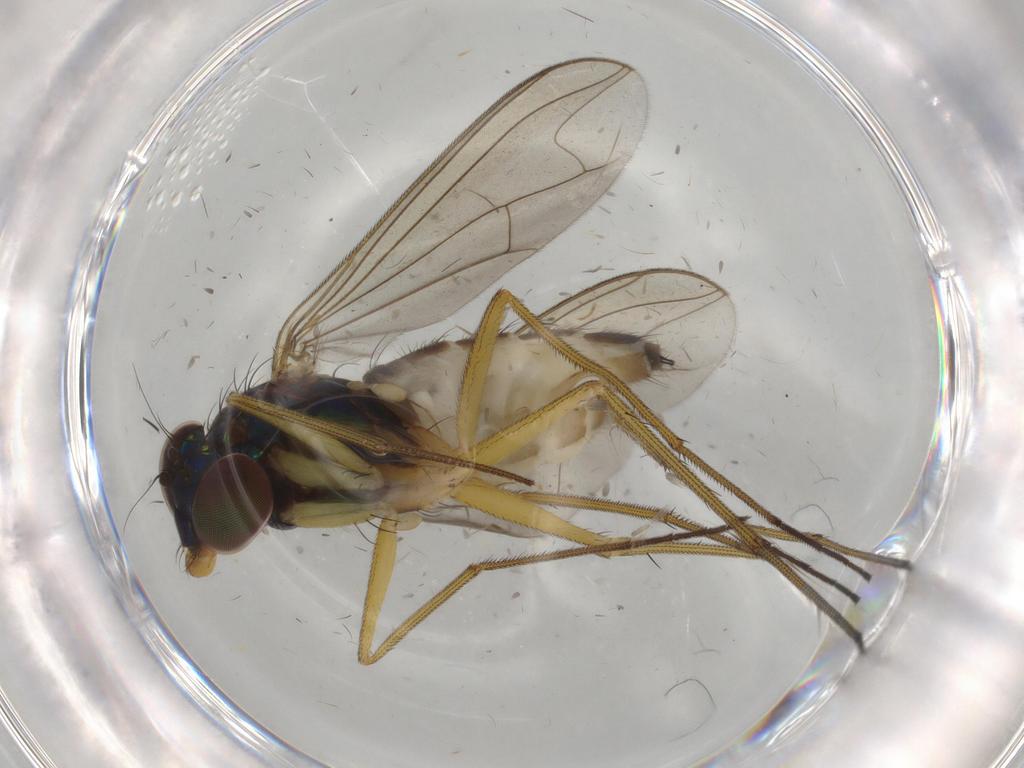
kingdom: Animalia
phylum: Arthropoda
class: Insecta
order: Diptera
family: Dolichopodidae
